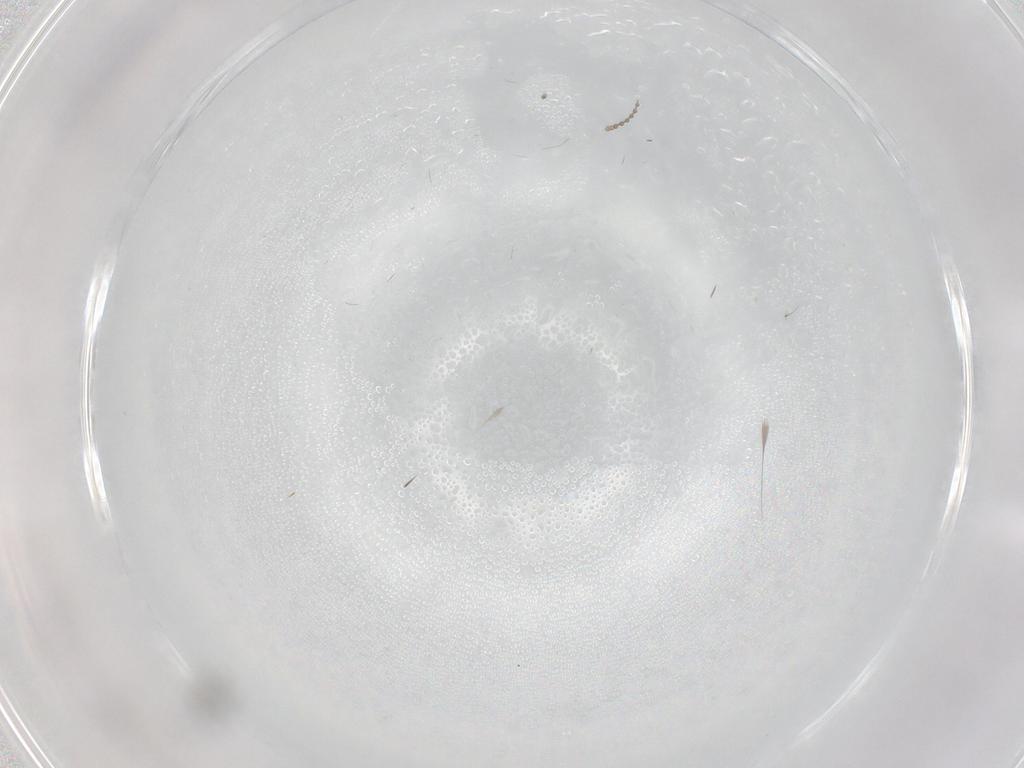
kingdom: Animalia
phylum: Arthropoda
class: Insecta
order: Diptera
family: Cecidomyiidae
